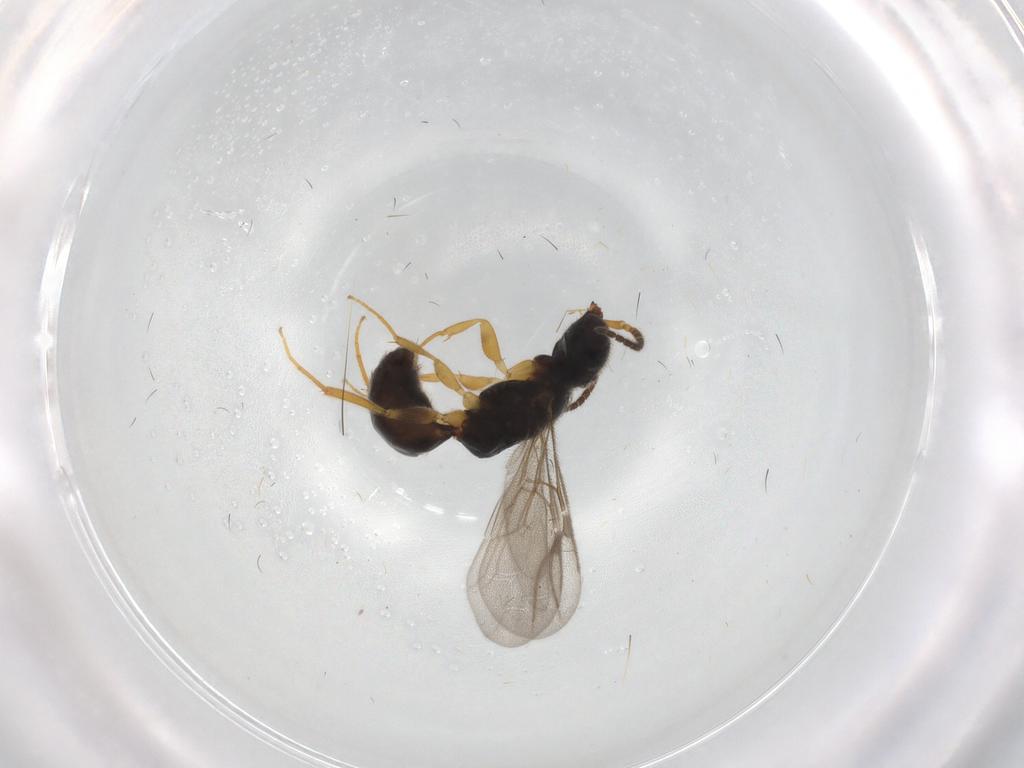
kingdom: Animalia
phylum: Arthropoda
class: Insecta
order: Hymenoptera
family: Bethylidae
